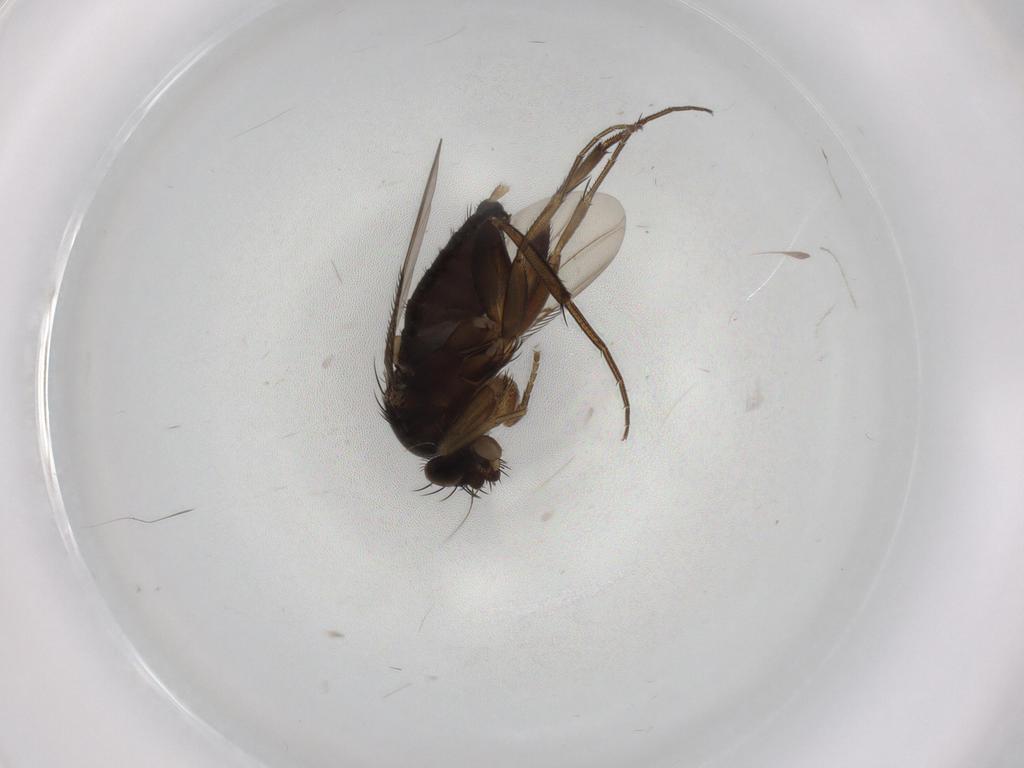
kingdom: Animalia
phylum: Arthropoda
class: Insecta
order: Diptera
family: Phoridae
